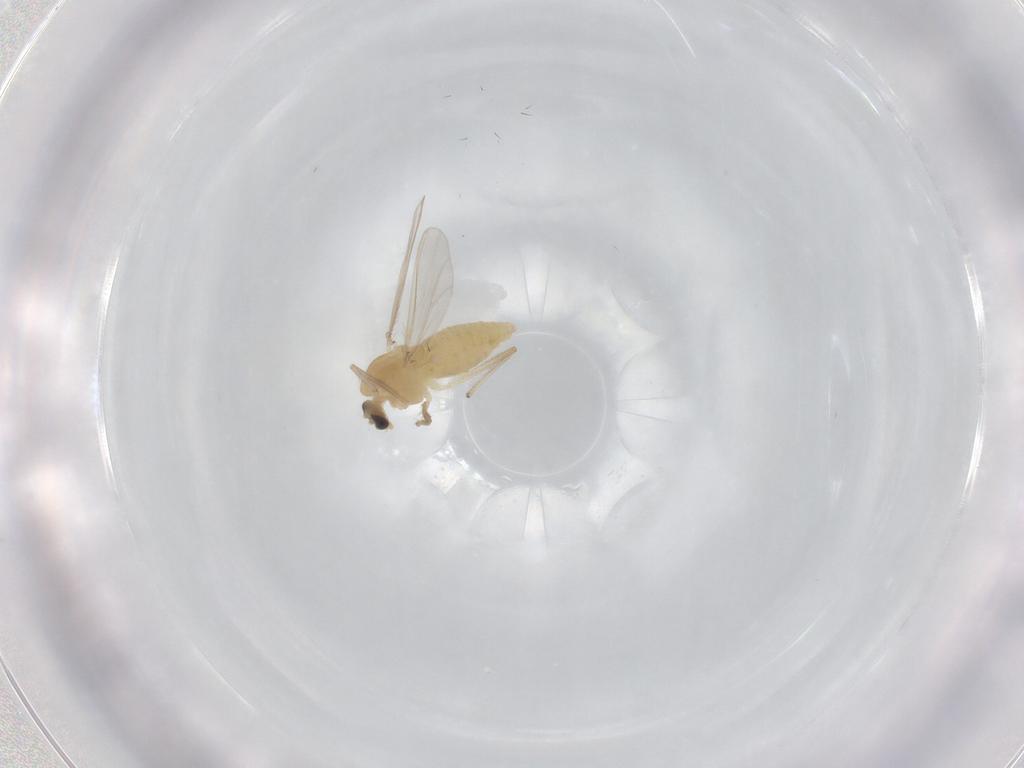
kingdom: Animalia
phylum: Arthropoda
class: Insecta
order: Diptera
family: Chironomidae
